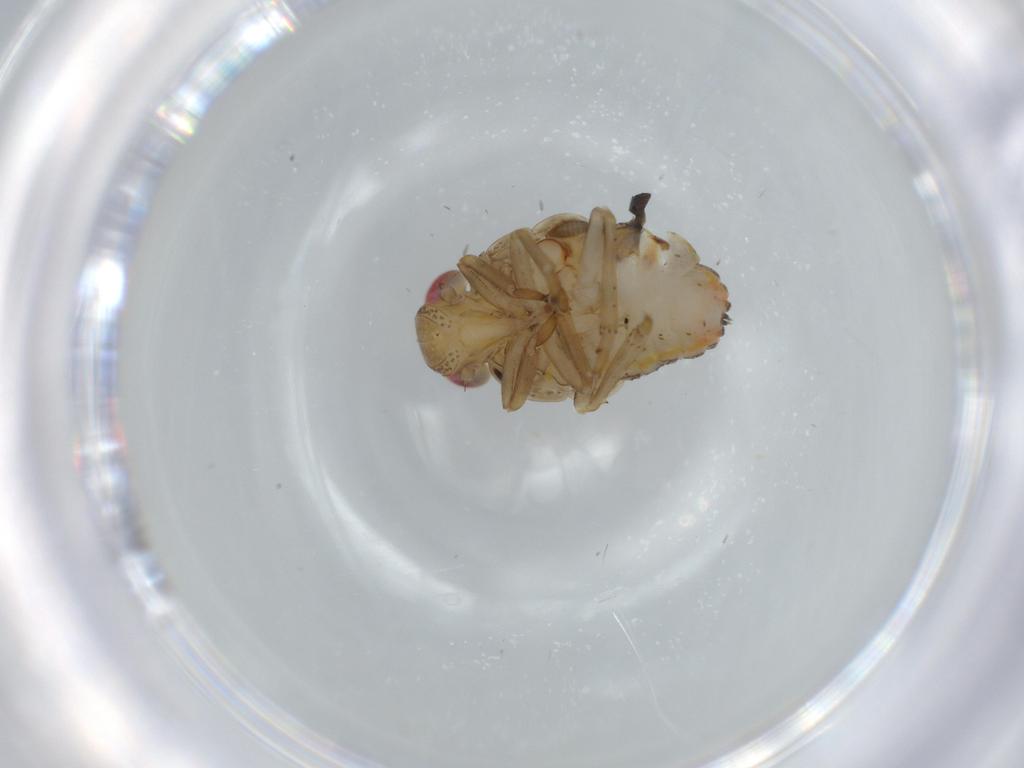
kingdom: Animalia
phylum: Arthropoda
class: Insecta
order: Hemiptera
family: Issidae
